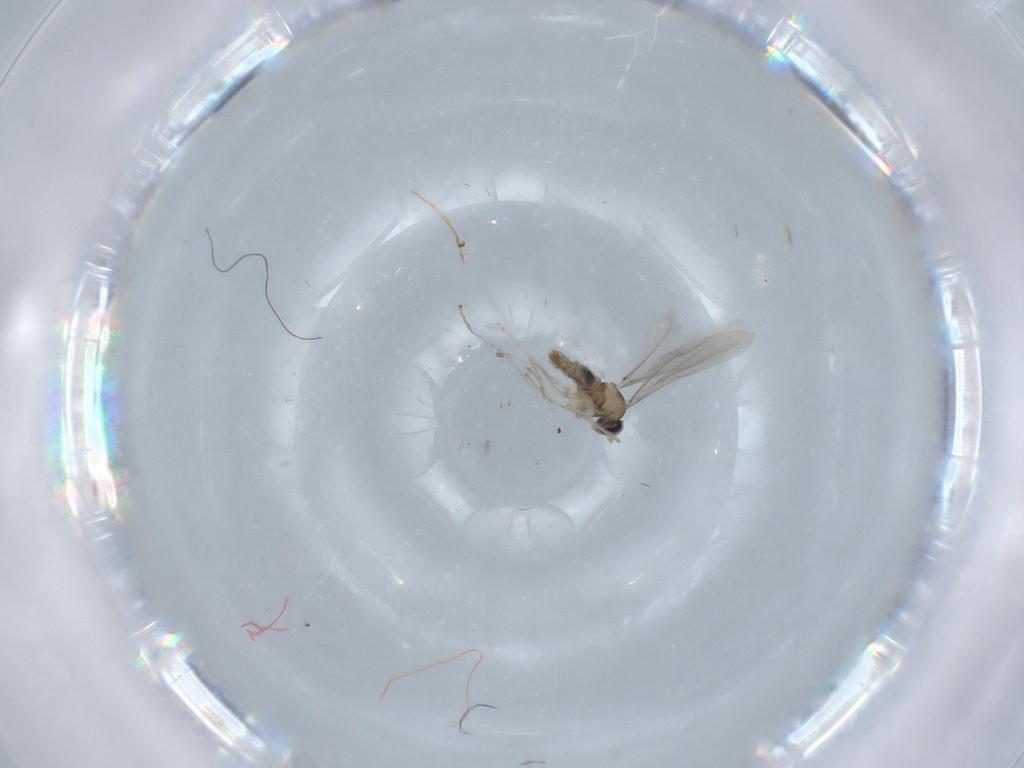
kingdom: Animalia
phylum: Arthropoda
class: Insecta
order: Diptera
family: Cecidomyiidae
